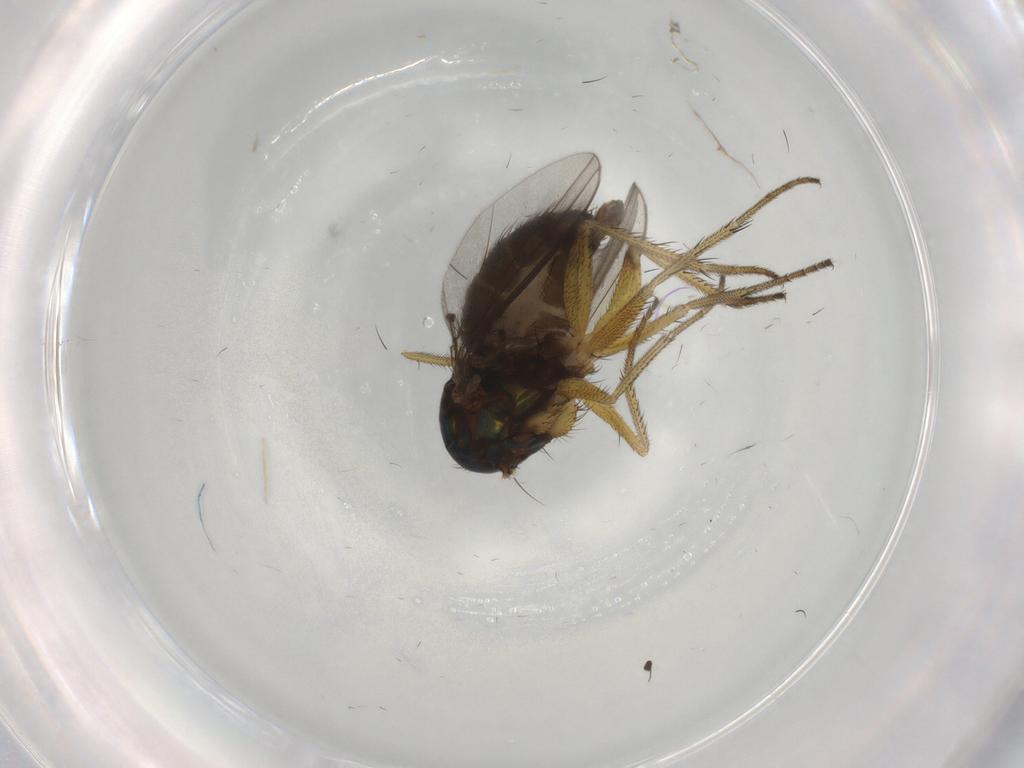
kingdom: Animalia
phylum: Arthropoda
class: Insecta
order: Diptera
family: Dolichopodidae
